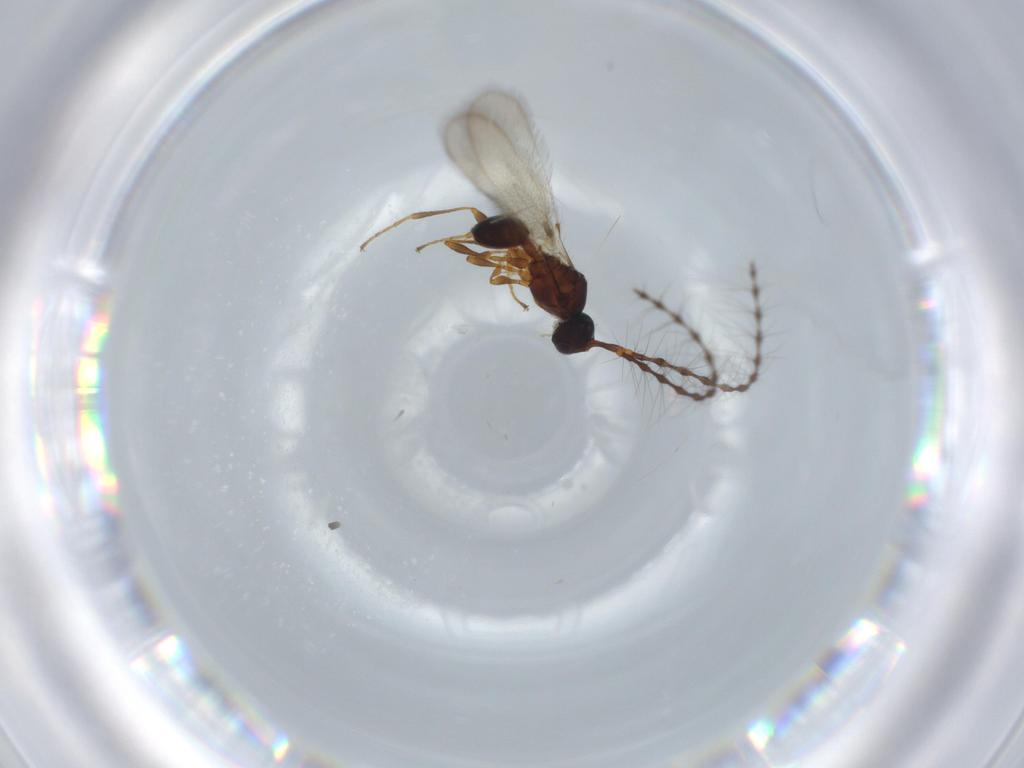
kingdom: Animalia
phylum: Arthropoda
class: Insecta
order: Hymenoptera
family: Diapriidae
